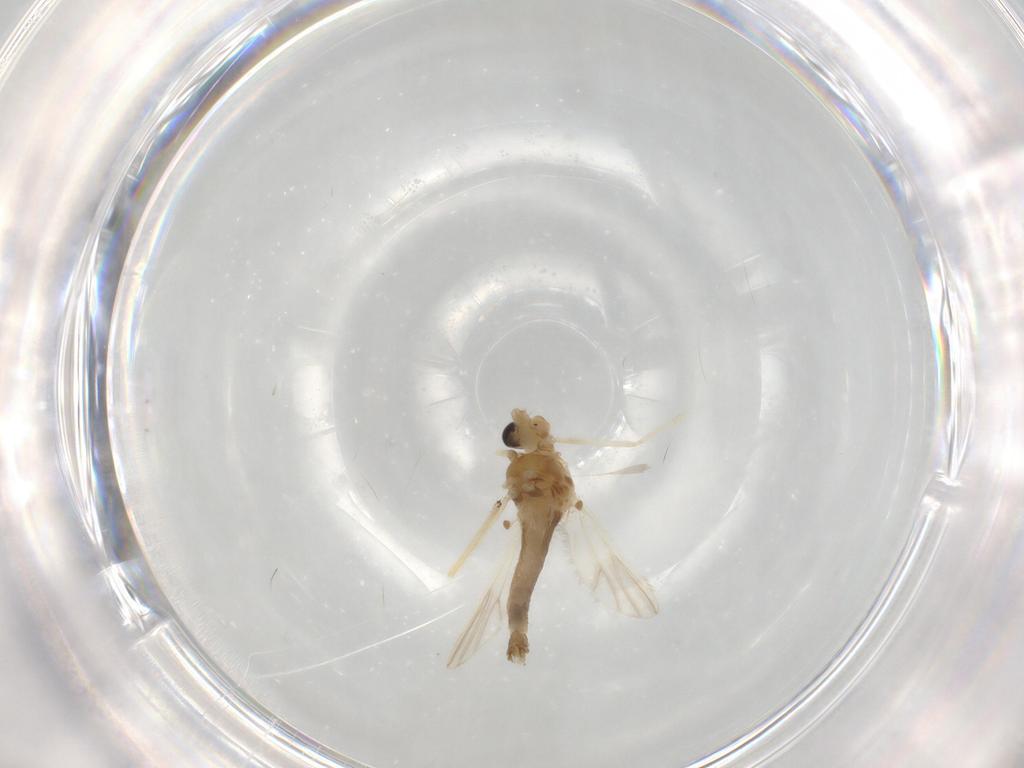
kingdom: Animalia
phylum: Arthropoda
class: Insecta
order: Diptera
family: Chironomidae
